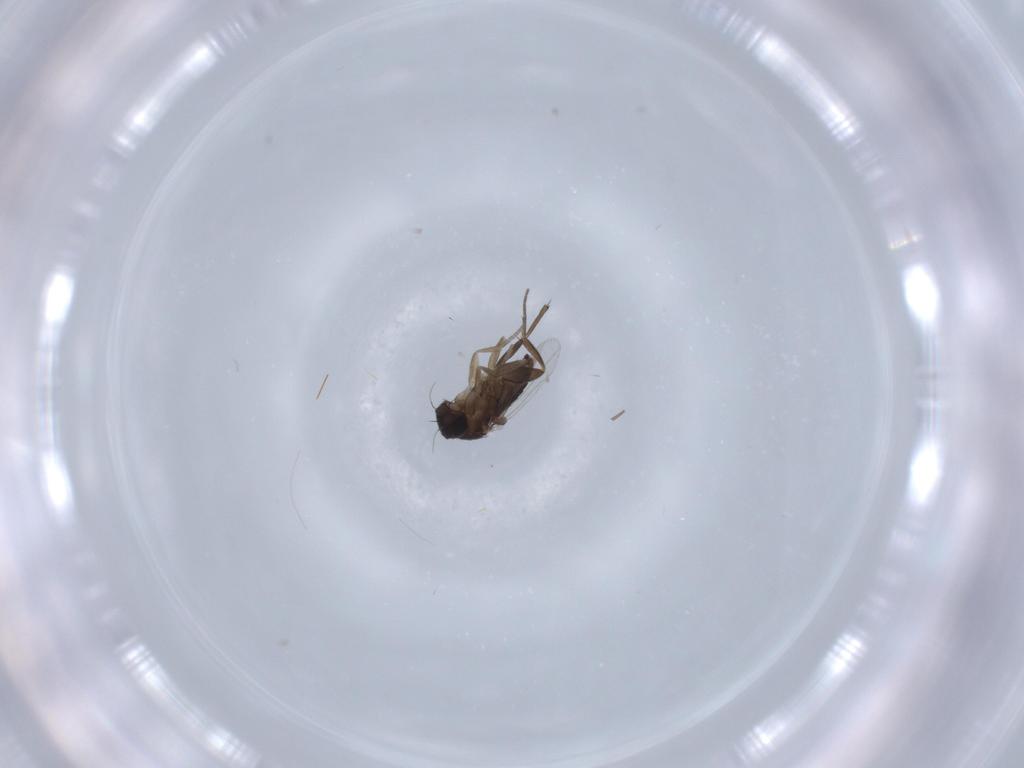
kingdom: Animalia
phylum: Arthropoda
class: Insecta
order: Diptera
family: Phoridae
